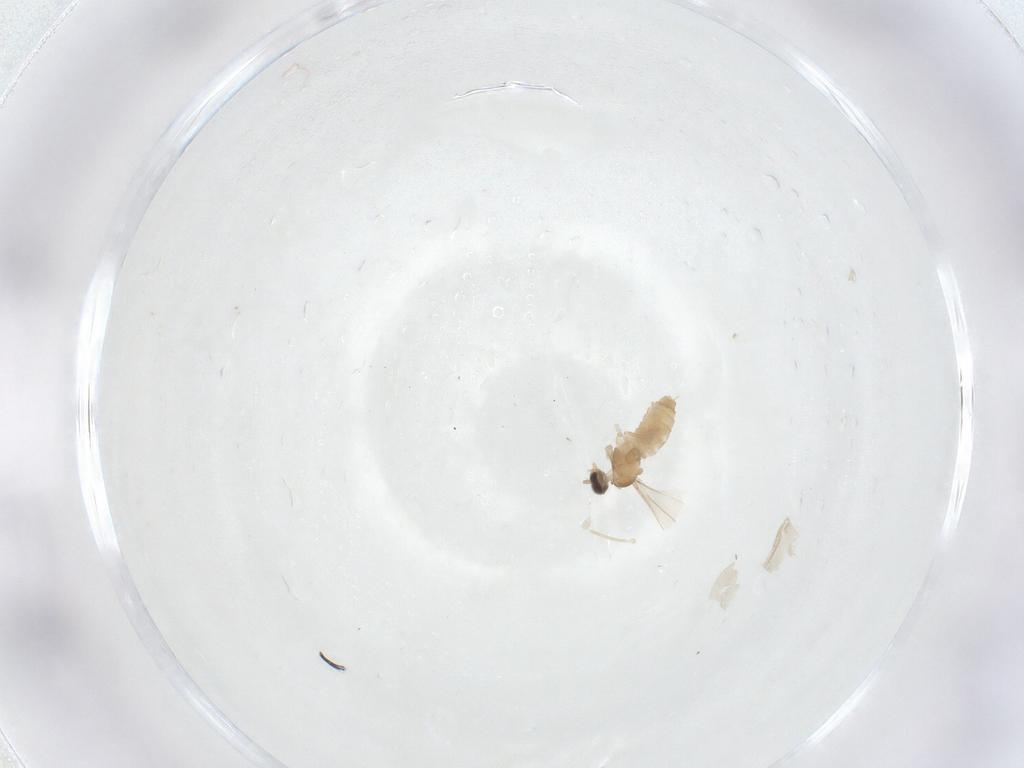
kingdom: Animalia
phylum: Arthropoda
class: Insecta
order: Diptera
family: Cecidomyiidae
